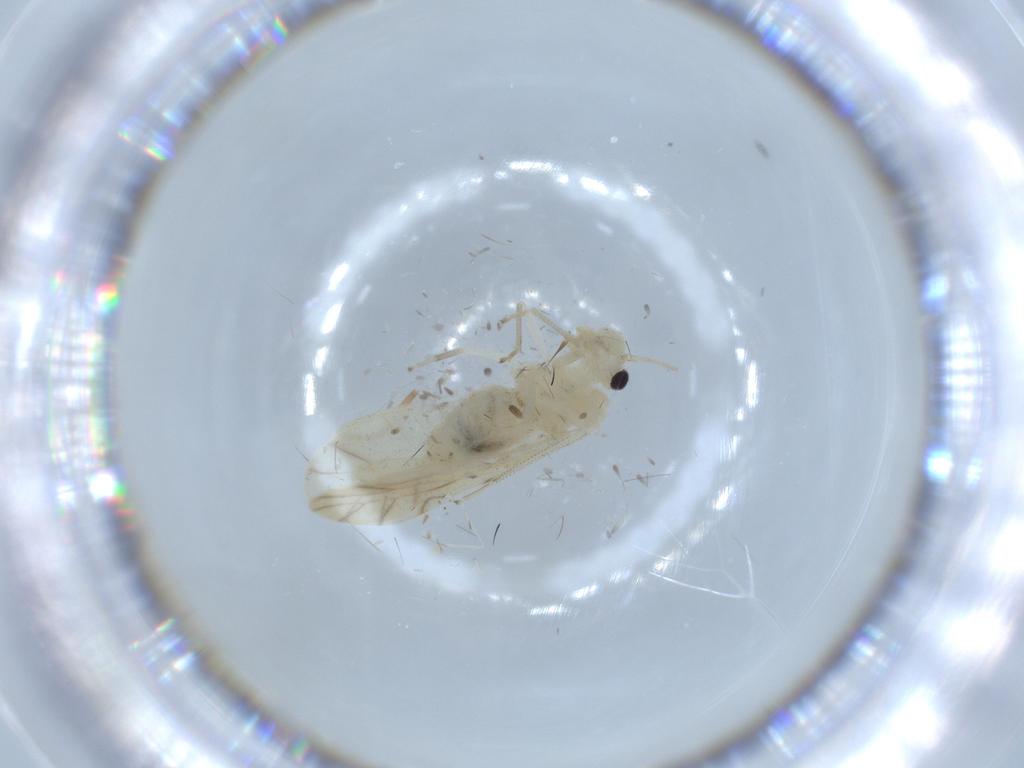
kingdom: Animalia
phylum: Arthropoda
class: Insecta
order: Psocodea
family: Caeciliusidae
